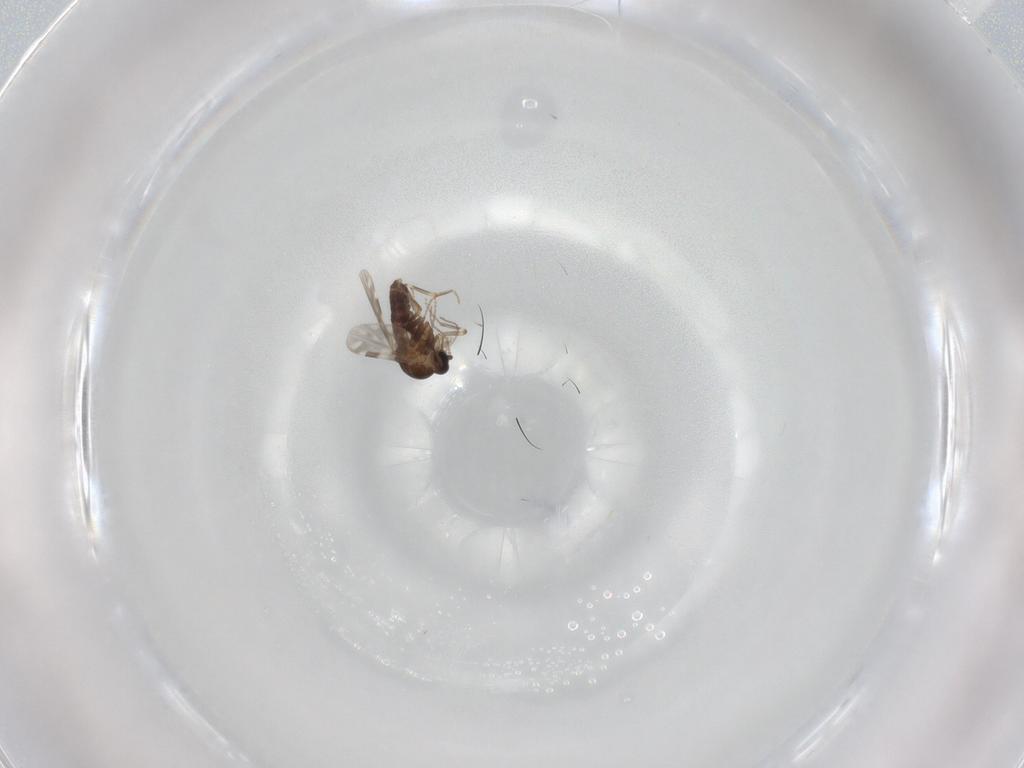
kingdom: Animalia
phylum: Arthropoda
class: Insecta
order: Diptera
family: Ceratopogonidae
